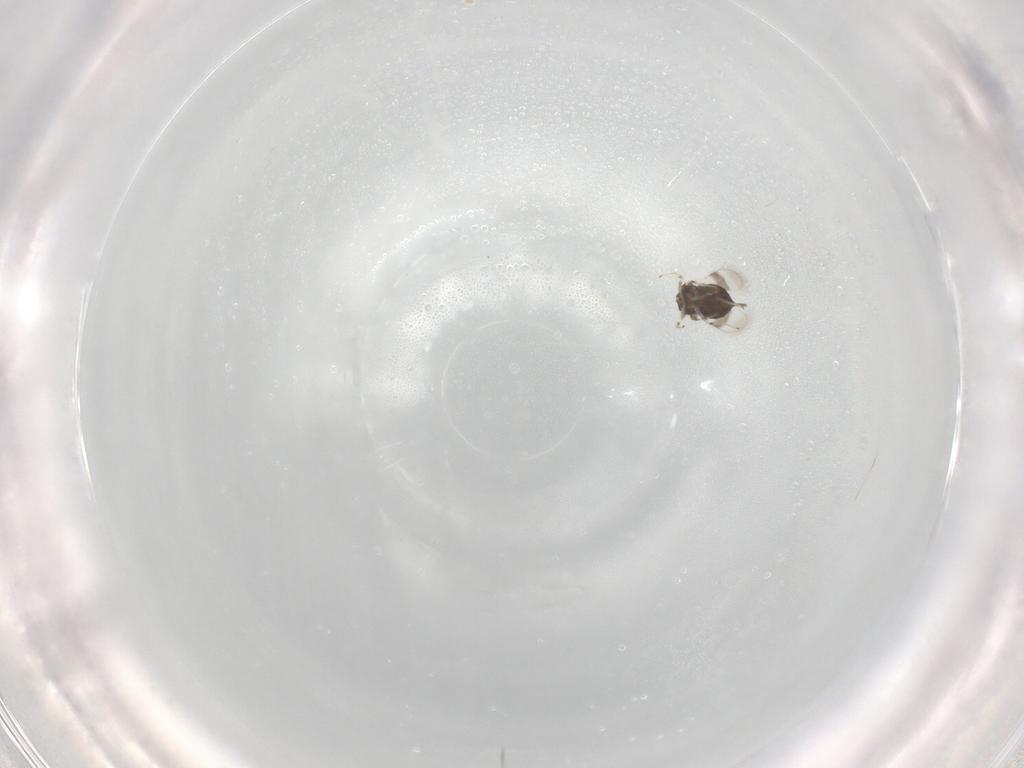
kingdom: Animalia
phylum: Arthropoda
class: Insecta
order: Hymenoptera
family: Azotidae
